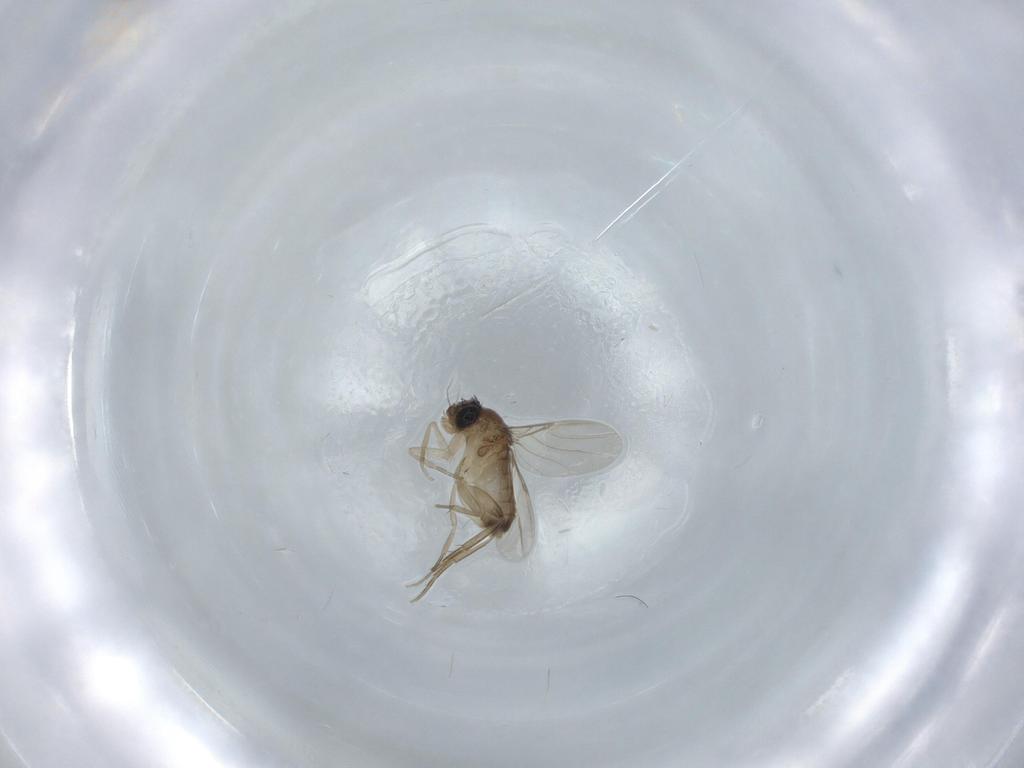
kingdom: Animalia
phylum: Arthropoda
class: Insecta
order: Diptera
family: Phoridae
